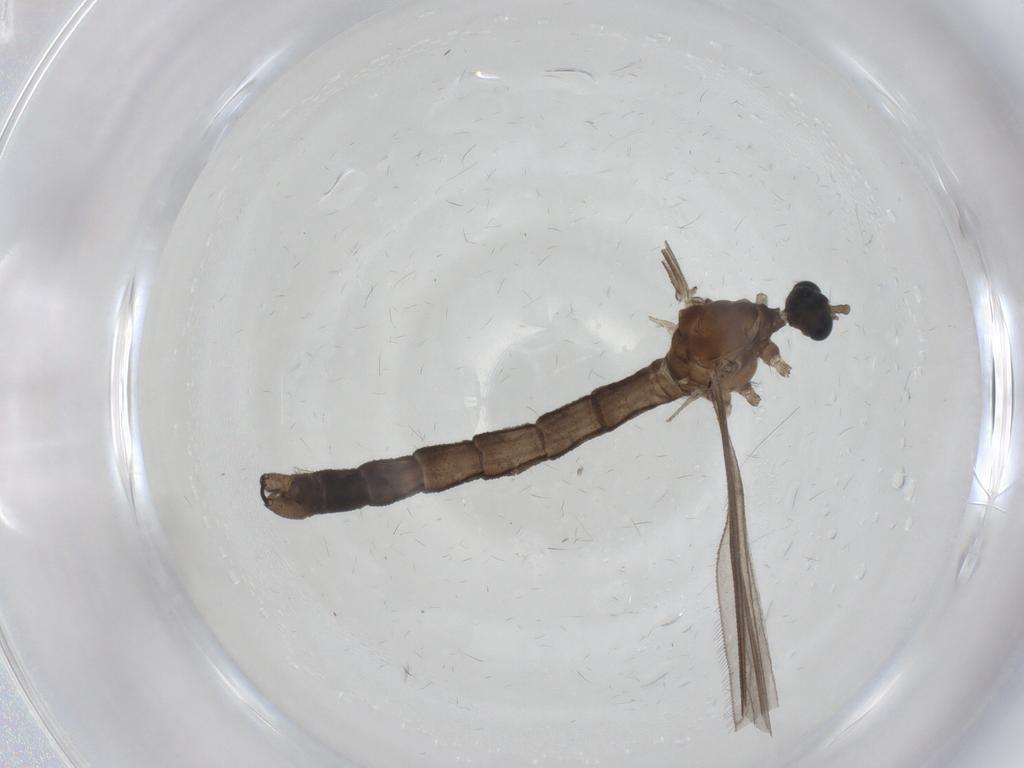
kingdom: Animalia
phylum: Arthropoda
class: Insecta
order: Diptera
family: Limoniidae
